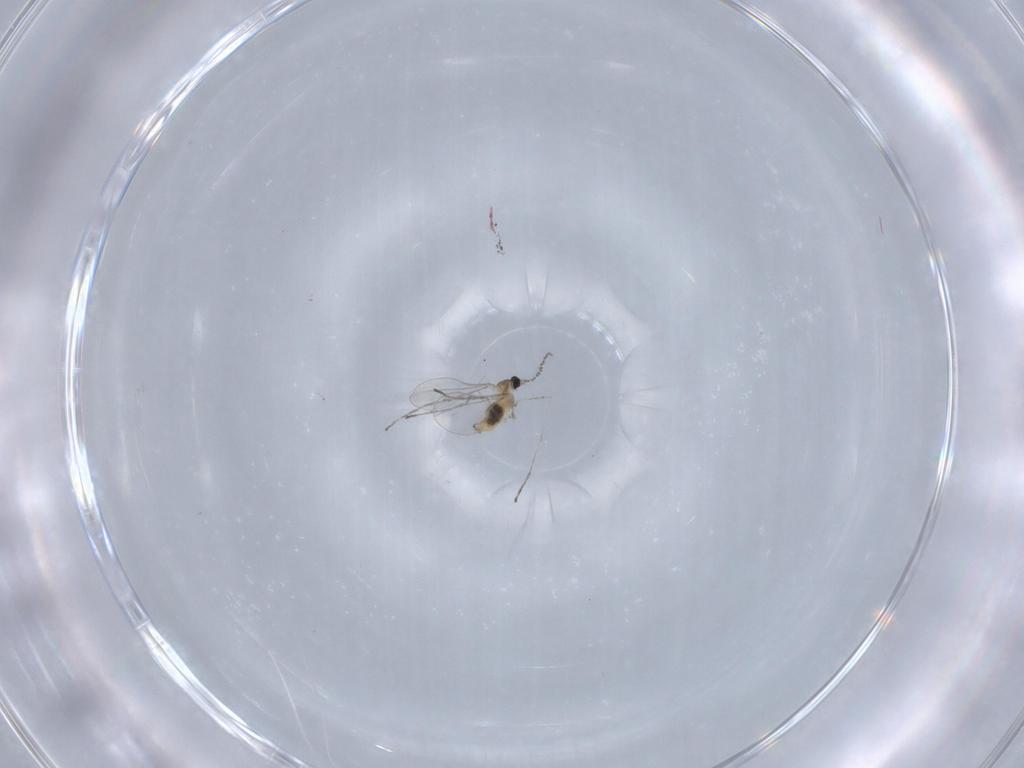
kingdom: Animalia
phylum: Arthropoda
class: Insecta
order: Diptera
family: Cecidomyiidae
